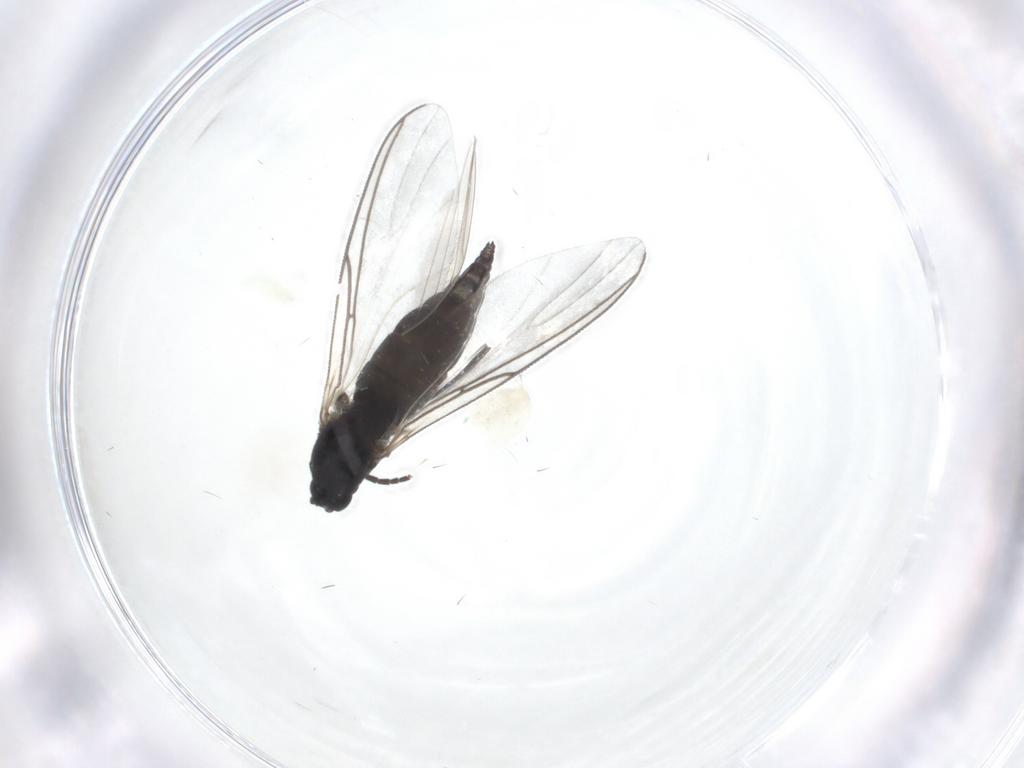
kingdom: Animalia
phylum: Arthropoda
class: Insecta
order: Diptera
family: Sciaridae
